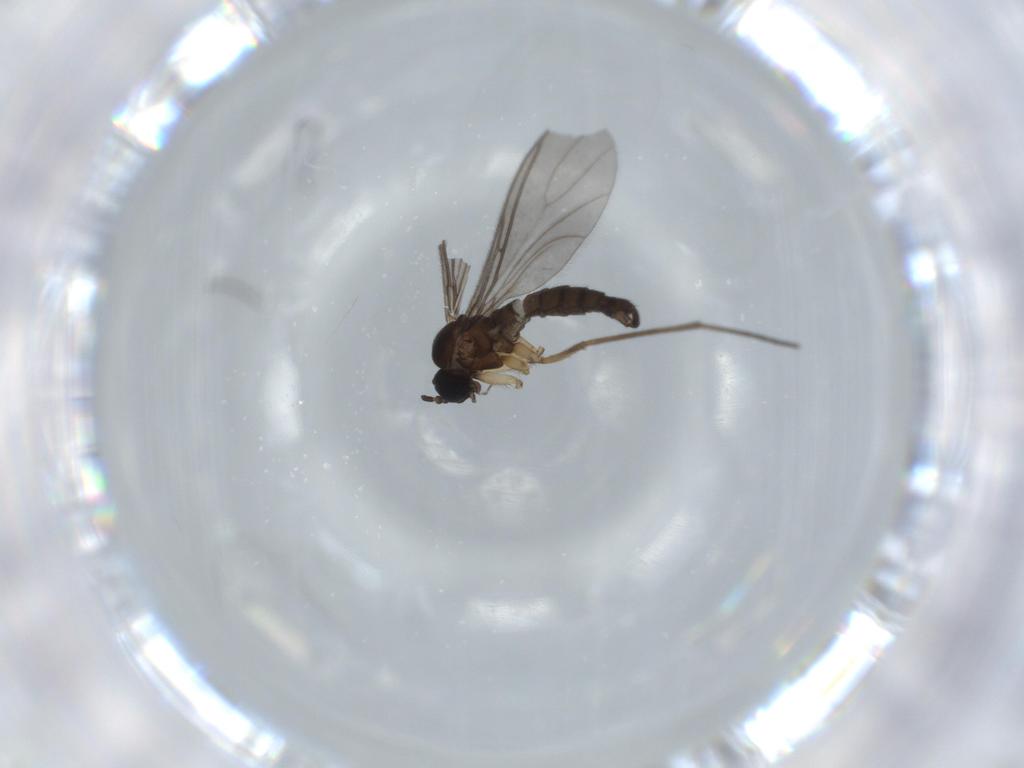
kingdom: Animalia
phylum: Arthropoda
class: Insecta
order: Diptera
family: Sciaridae
